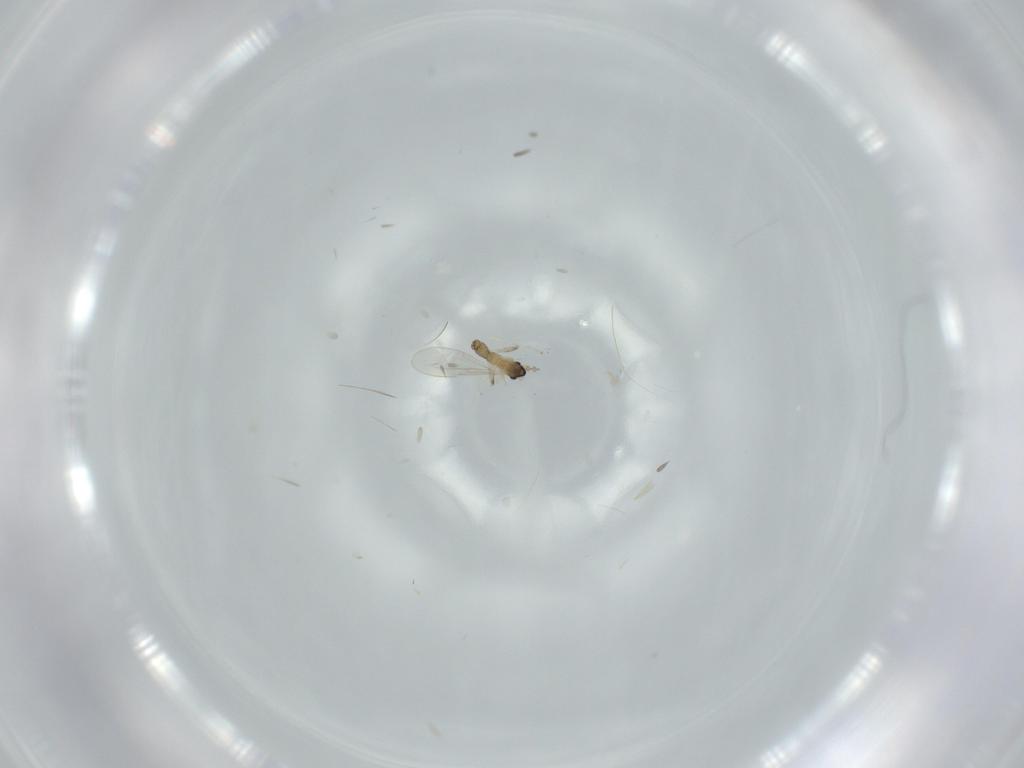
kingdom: Animalia
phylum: Arthropoda
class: Insecta
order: Diptera
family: Cecidomyiidae
